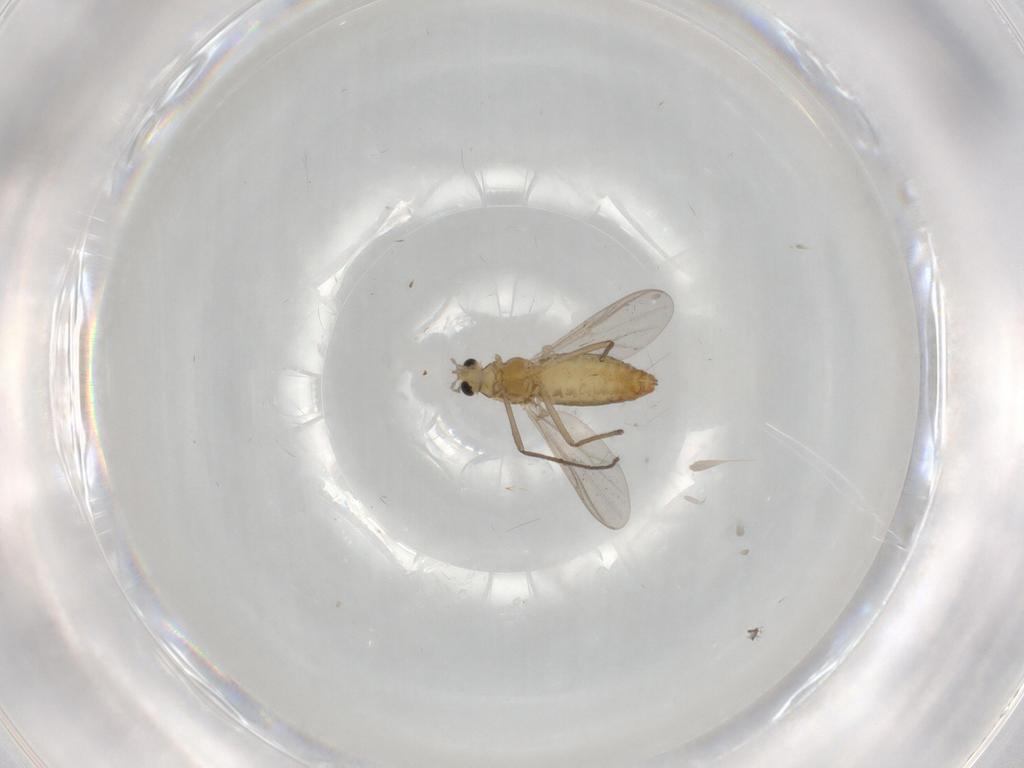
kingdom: Animalia
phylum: Arthropoda
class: Insecta
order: Diptera
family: Chironomidae
